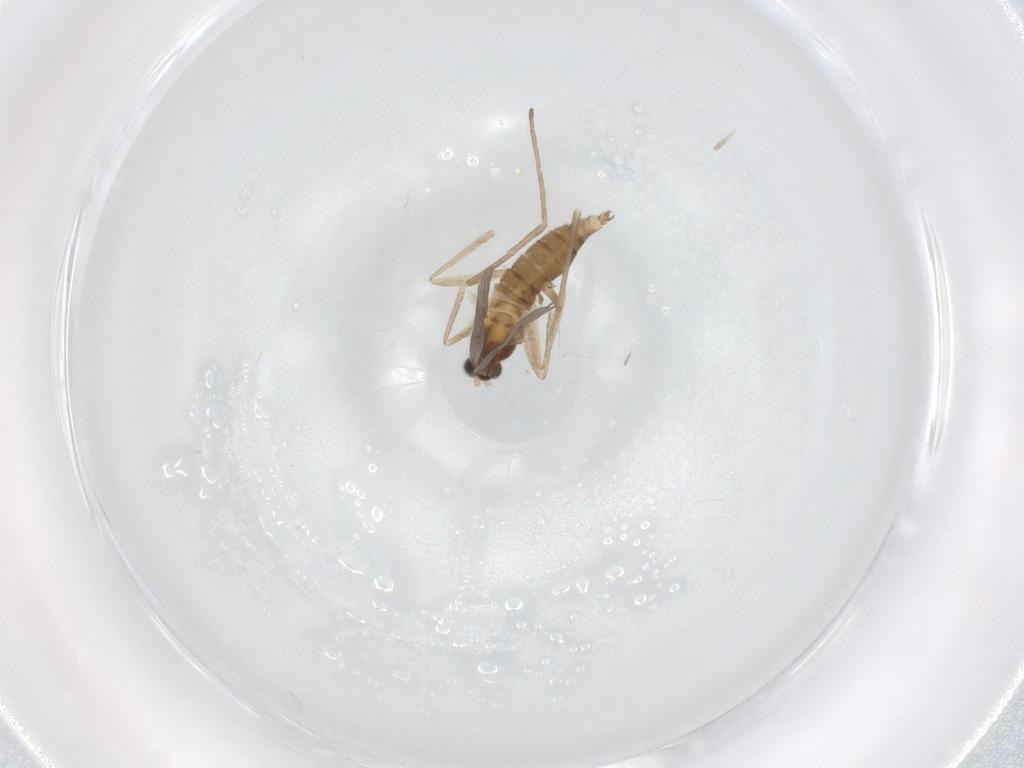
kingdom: Animalia
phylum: Arthropoda
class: Insecta
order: Diptera
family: Cecidomyiidae
